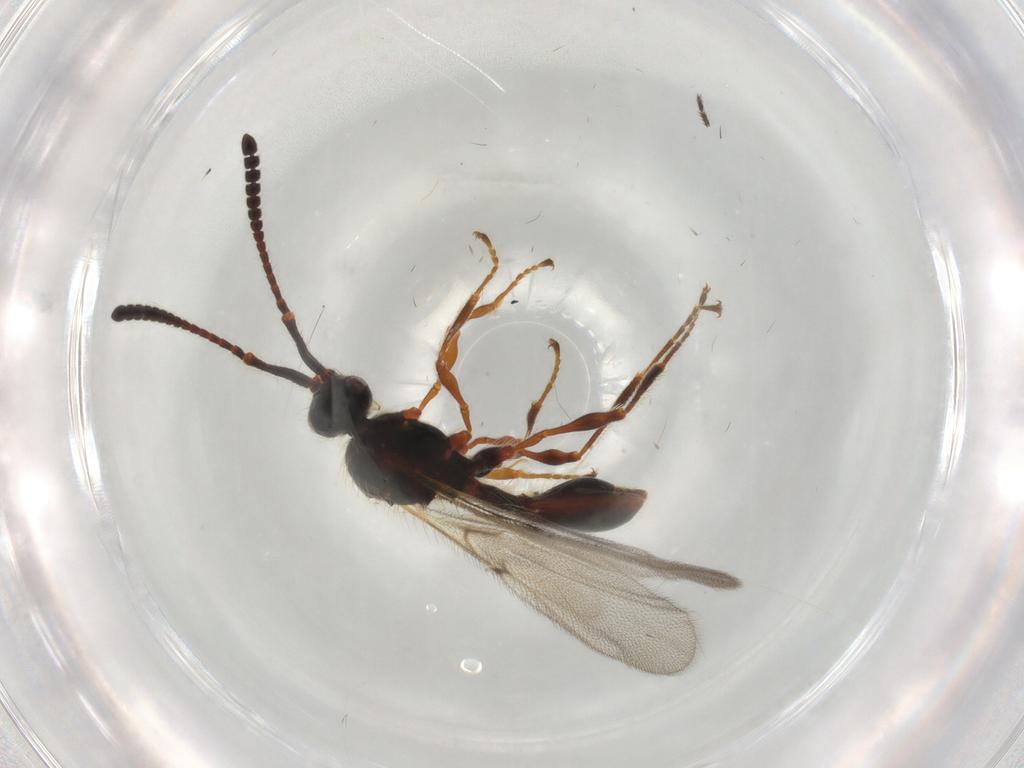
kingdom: Animalia
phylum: Arthropoda
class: Insecta
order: Hymenoptera
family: Diapriidae
